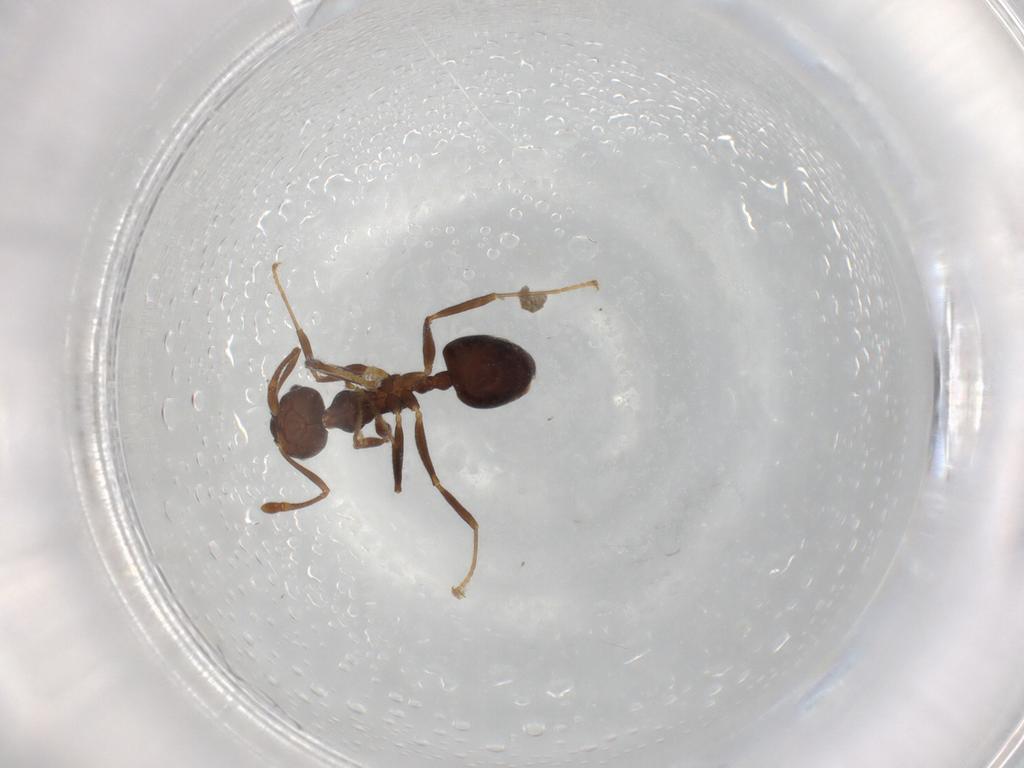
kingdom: Animalia
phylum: Arthropoda
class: Insecta
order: Hymenoptera
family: Formicidae
